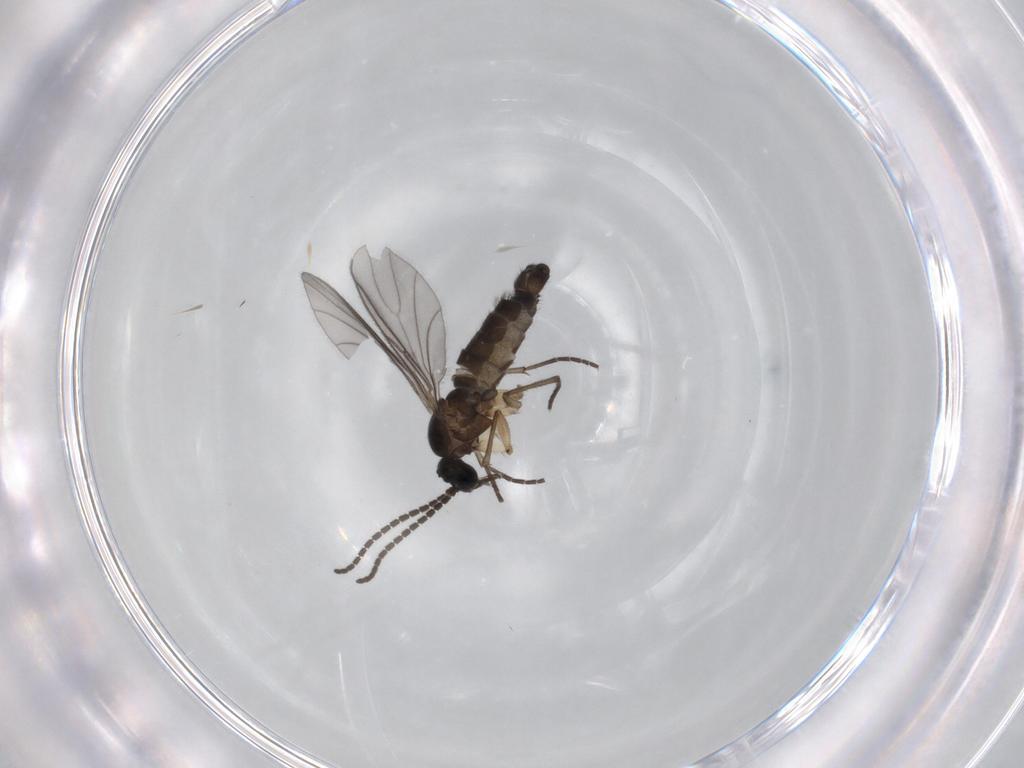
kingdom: Animalia
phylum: Arthropoda
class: Insecta
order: Diptera
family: Sciaridae
